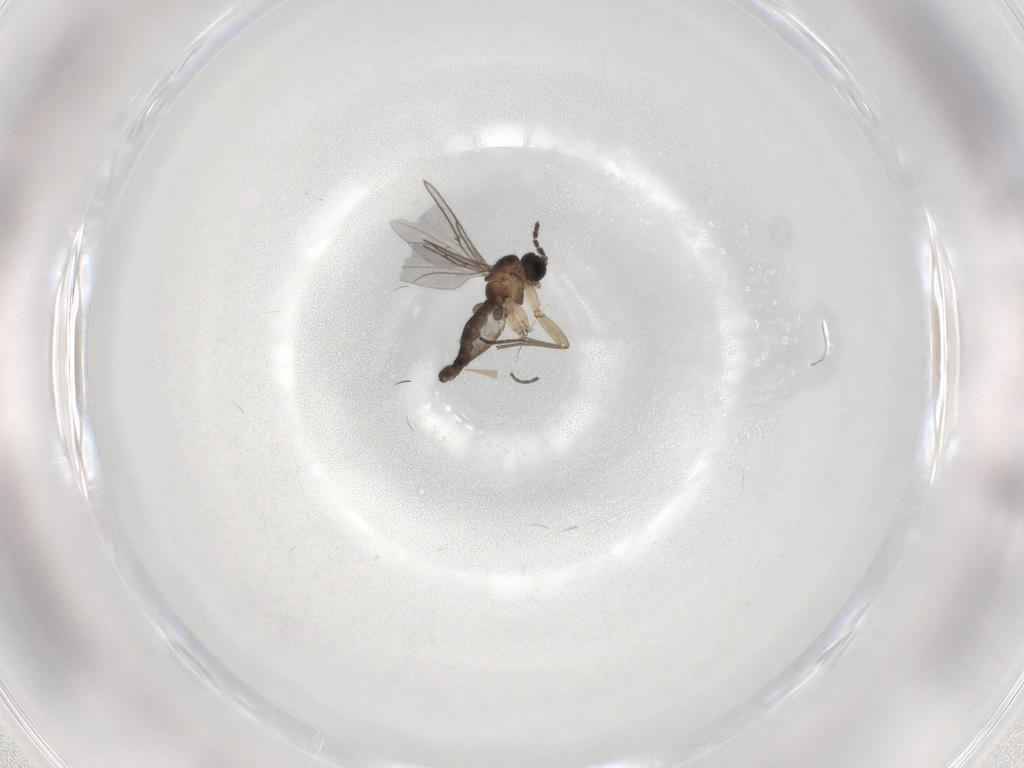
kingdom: Animalia
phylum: Arthropoda
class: Insecta
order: Diptera
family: Sciaridae
